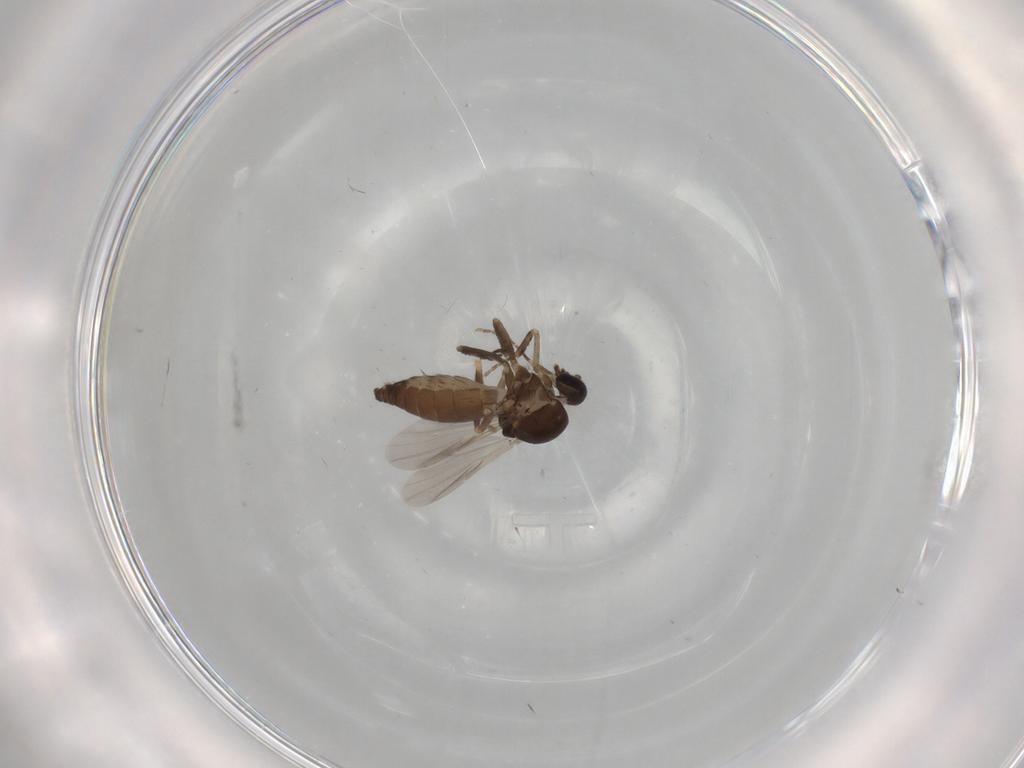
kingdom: Animalia
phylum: Arthropoda
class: Insecta
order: Diptera
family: Ceratopogonidae
